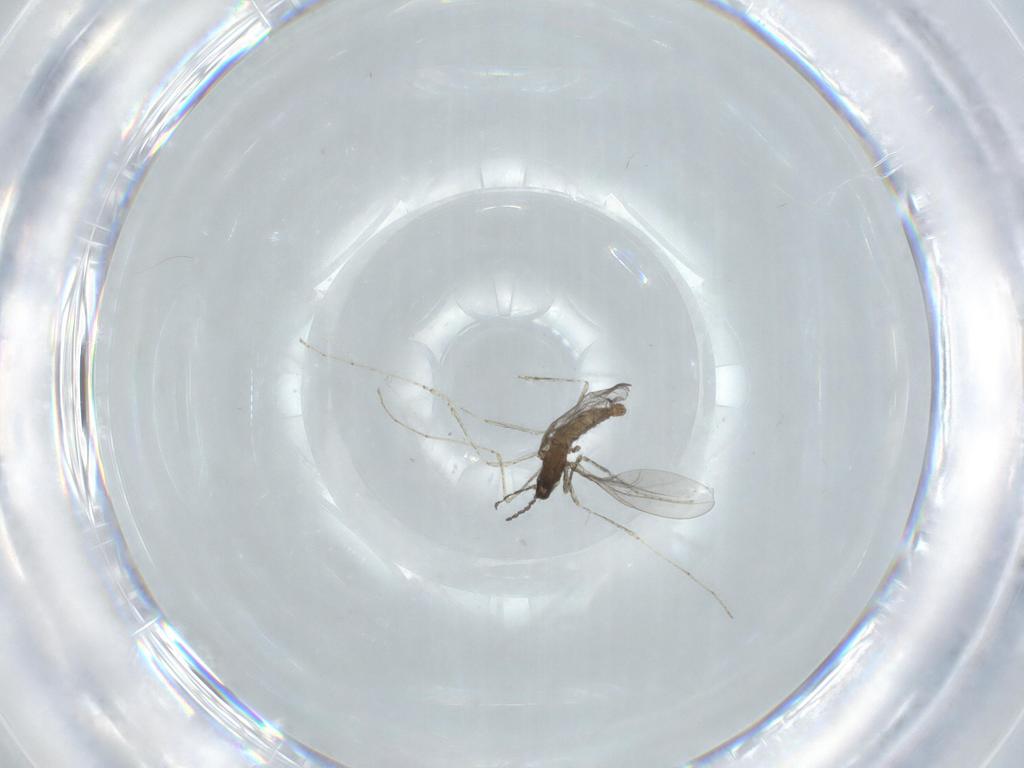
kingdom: Animalia
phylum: Arthropoda
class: Insecta
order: Diptera
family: Cecidomyiidae
